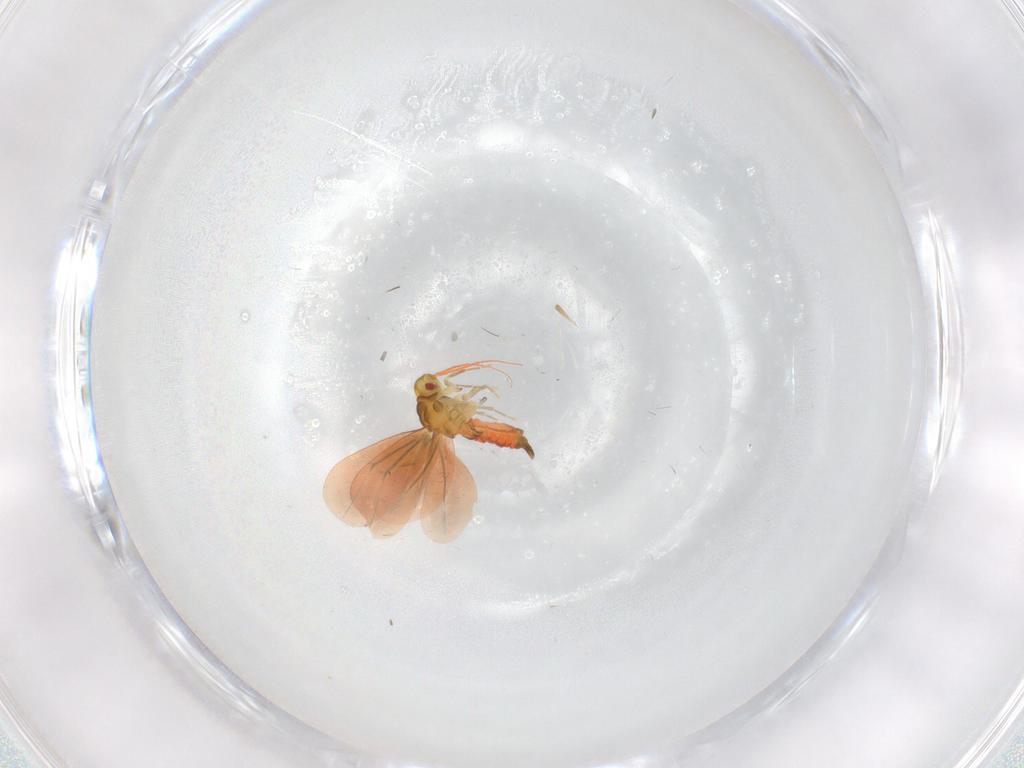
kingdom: Animalia
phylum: Arthropoda
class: Insecta
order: Hemiptera
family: Aleyrodidae
